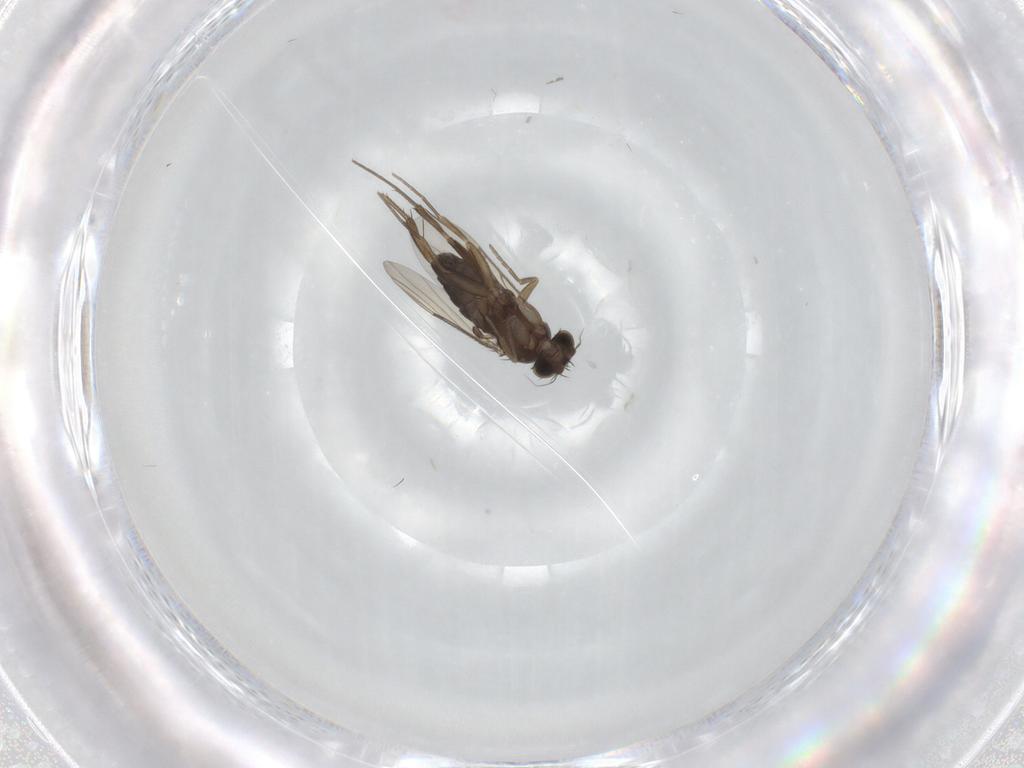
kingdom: Animalia
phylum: Arthropoda
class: Insecta
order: Diptera
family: Phoridae
